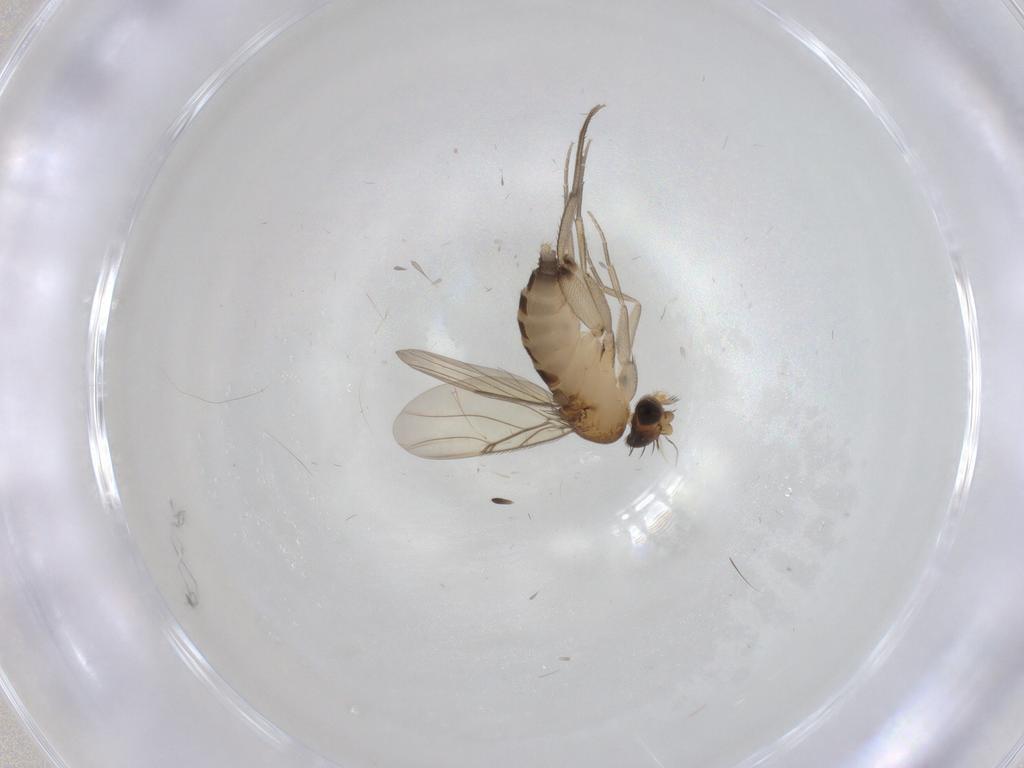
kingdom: Animalia
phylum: Arthropoda
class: Insecta
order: Diptera
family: Phoridae
